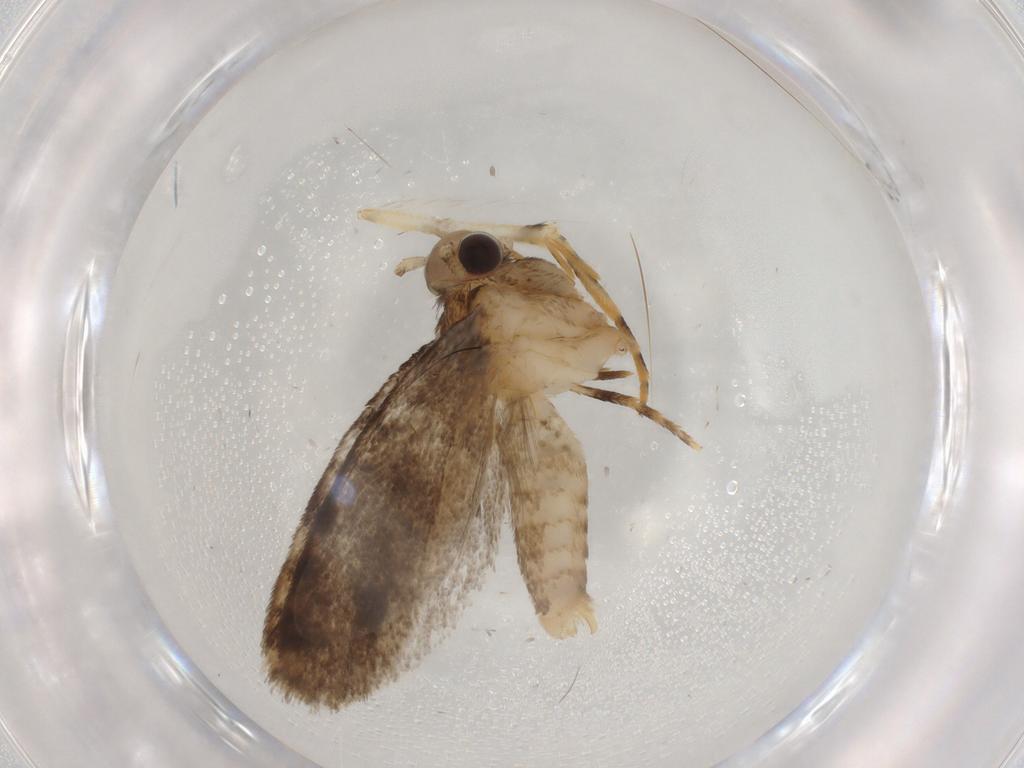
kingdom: Animalia
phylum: Arthropoda
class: Insecta
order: Lepidoptera
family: Tineidae
